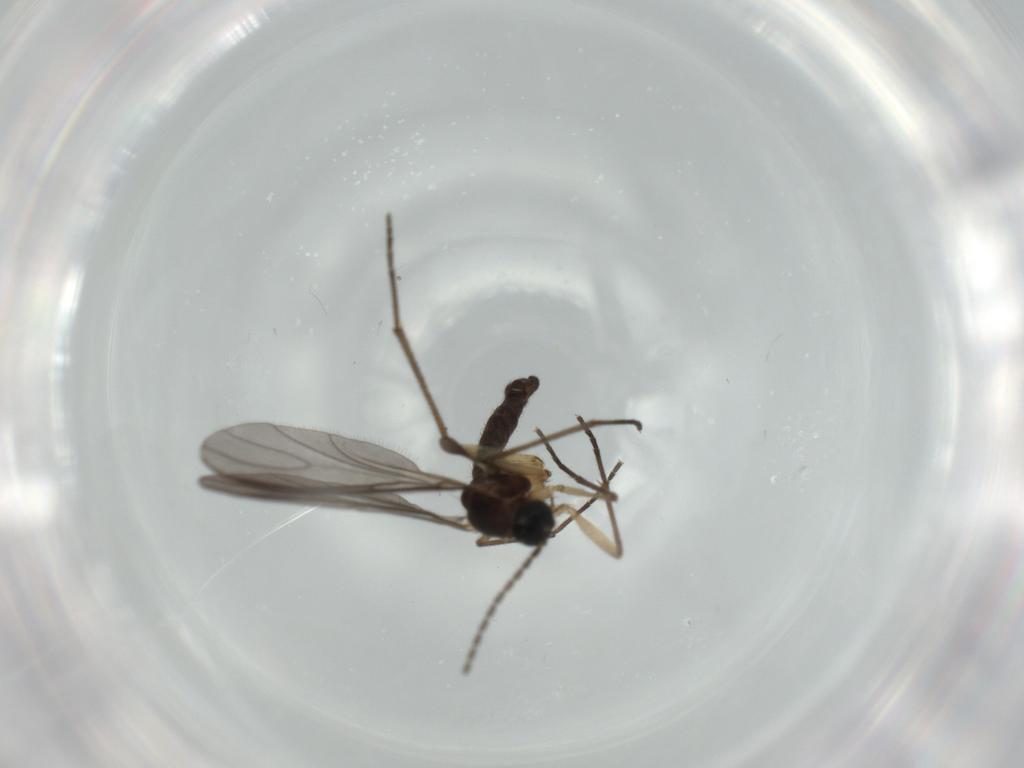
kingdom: Animalia
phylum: Arthropoda
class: Insecta
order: Diptera
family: Sciaridae
